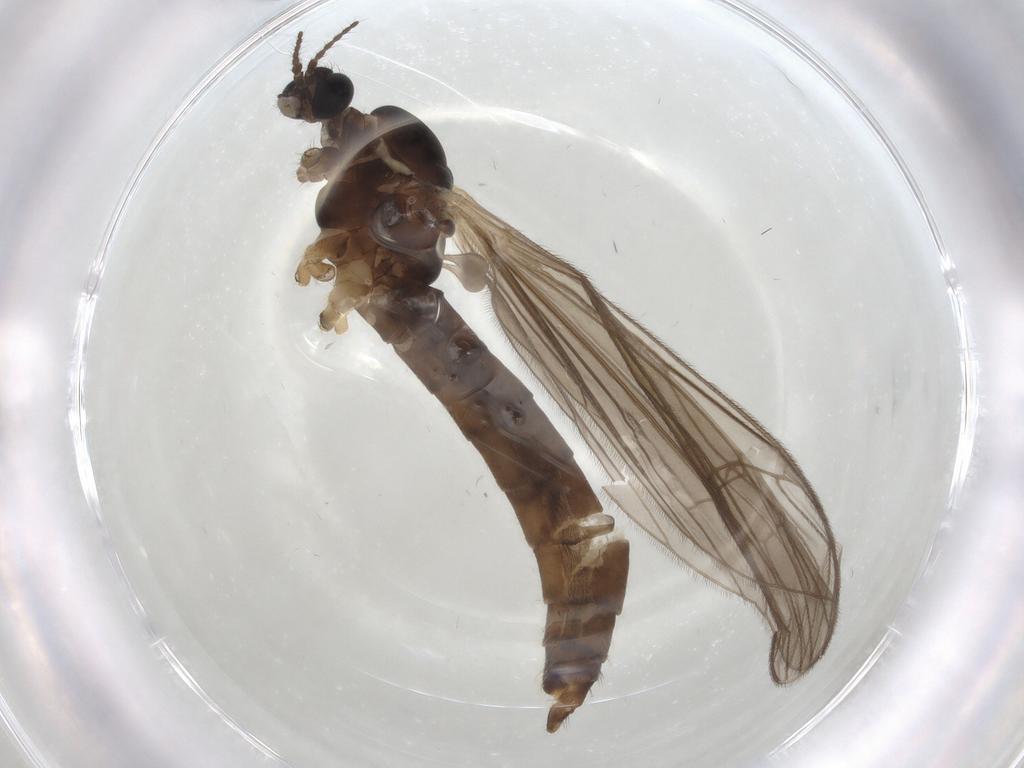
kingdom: Animalia
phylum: Arthropoda
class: Insecta
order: Diptera
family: Limoniidae
